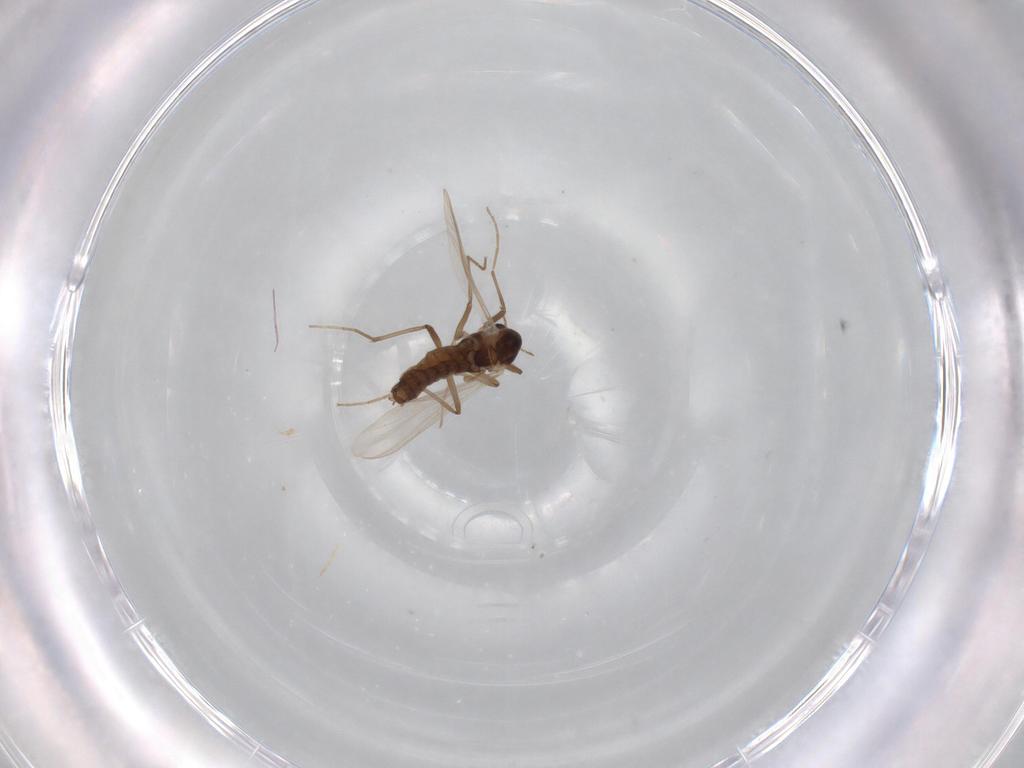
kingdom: Animalia
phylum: Arthropoda
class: Insecta
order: Diptera
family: Chironomidae
